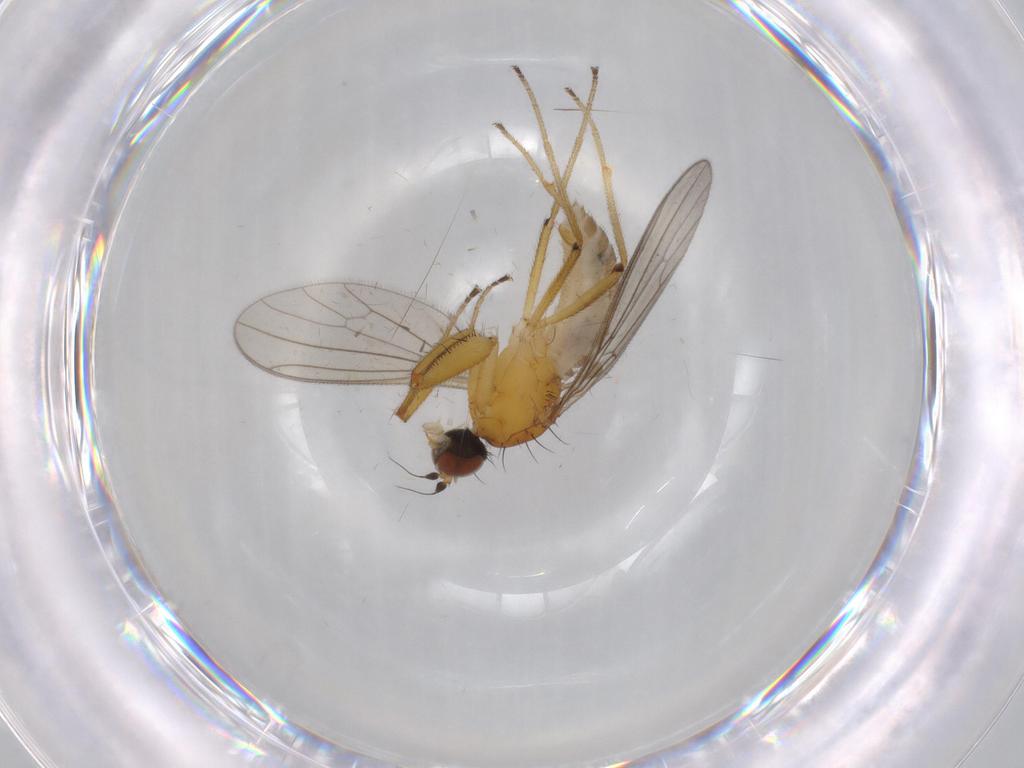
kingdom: Animalia
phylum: Arthropoda
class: Insecta
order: Diptera
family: Empididae
